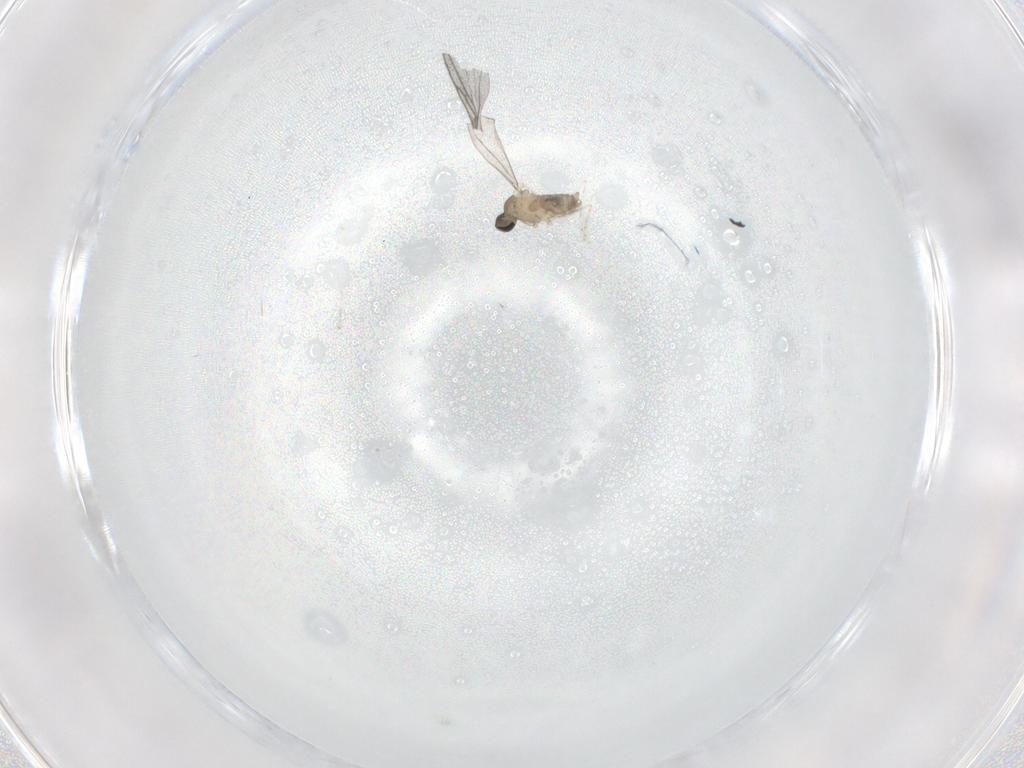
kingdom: Animalia
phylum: Arthropoda
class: Insecta
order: Diptera
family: Cecidomyiidae
